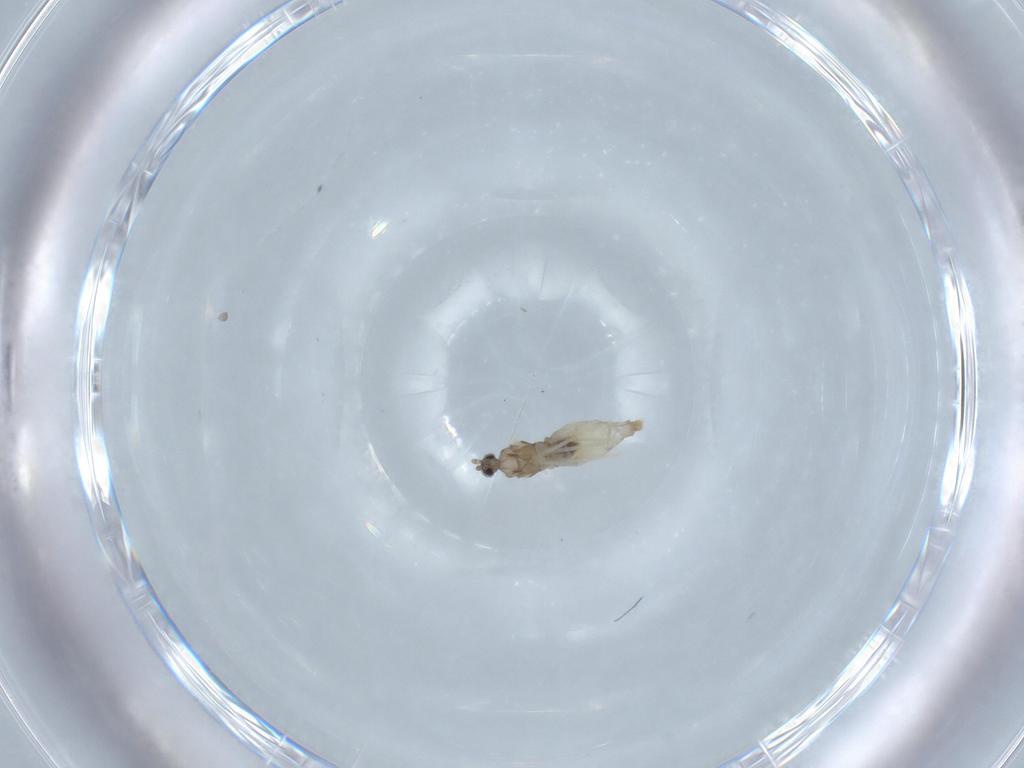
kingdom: Animalia
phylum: Arthropoda
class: Insecta
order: Diptera
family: Cecidomyiidae
